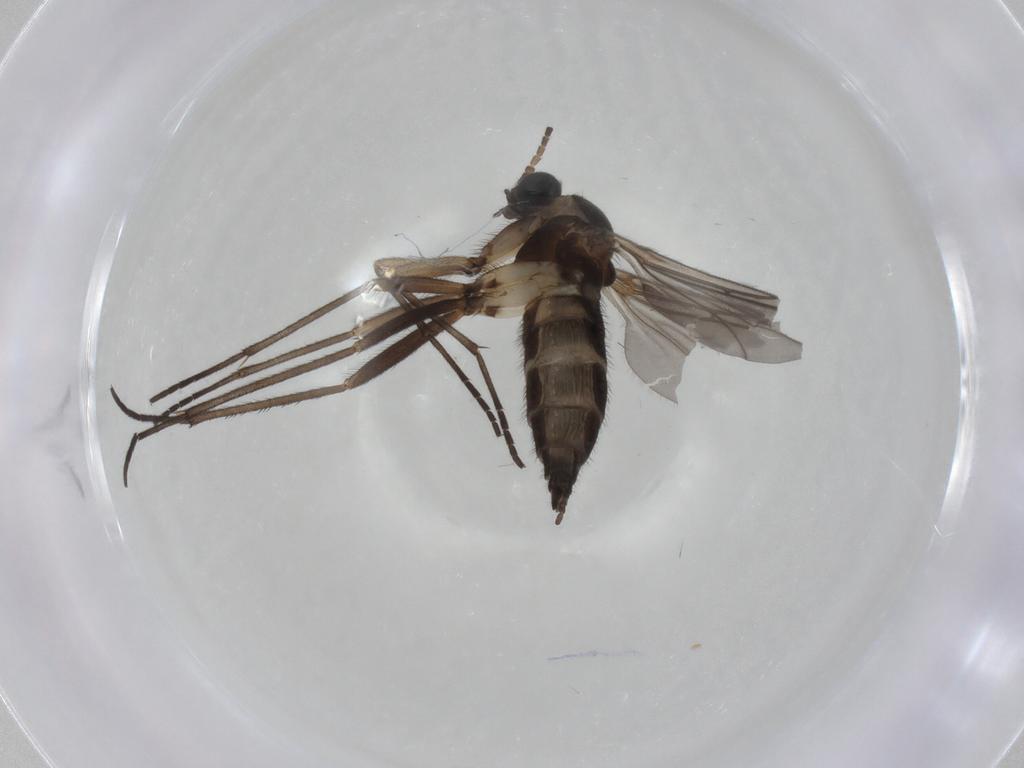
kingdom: Animalia
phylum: Arthropoda
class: Insecta
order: Diptera
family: Sciaridae
